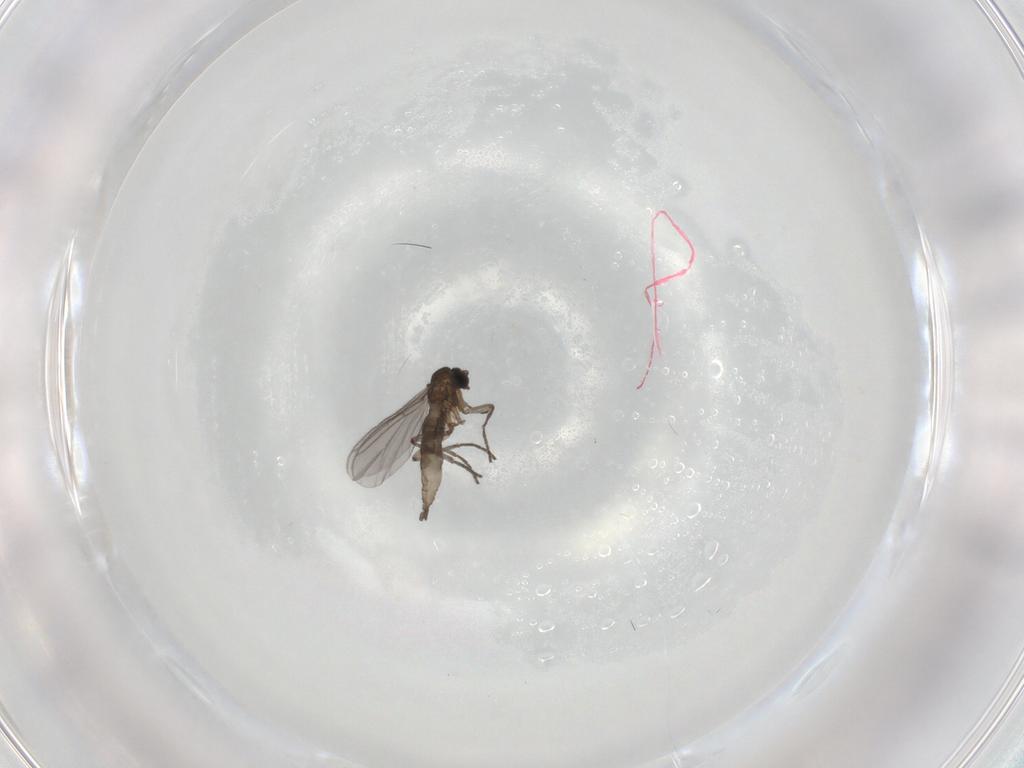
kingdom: Animalia
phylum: Arthropoda
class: Insecta
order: Diptera
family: Sciaridae
